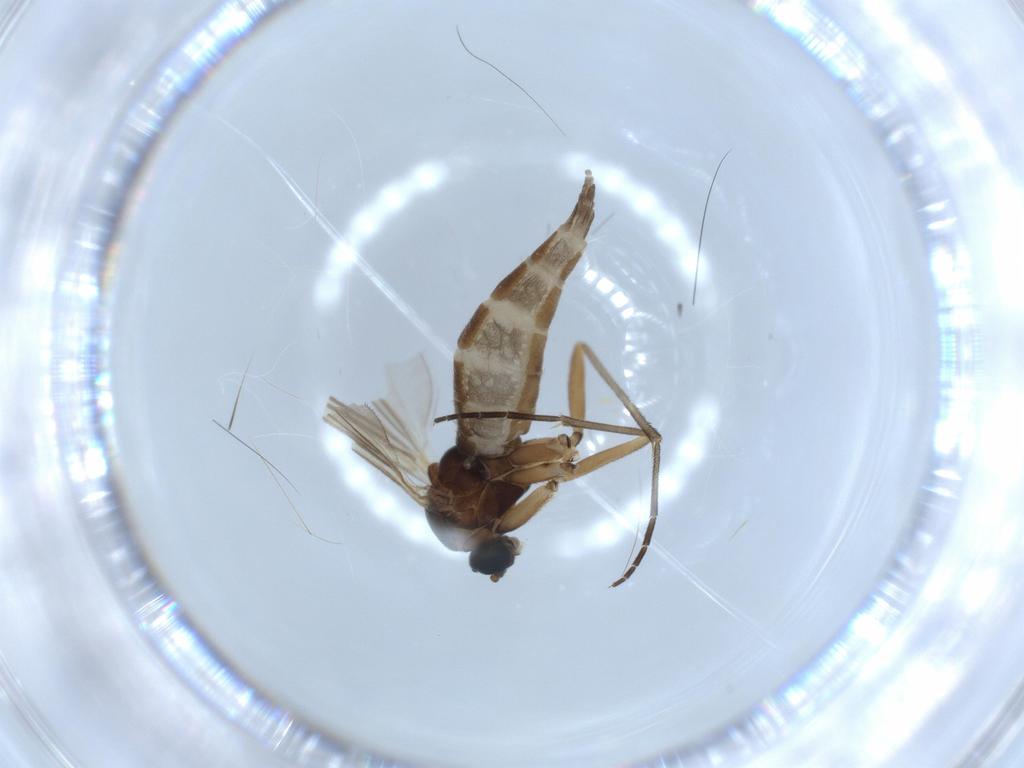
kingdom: Animalia
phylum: Arthropoda
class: Insecta
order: Diptera
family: Sciaridae
